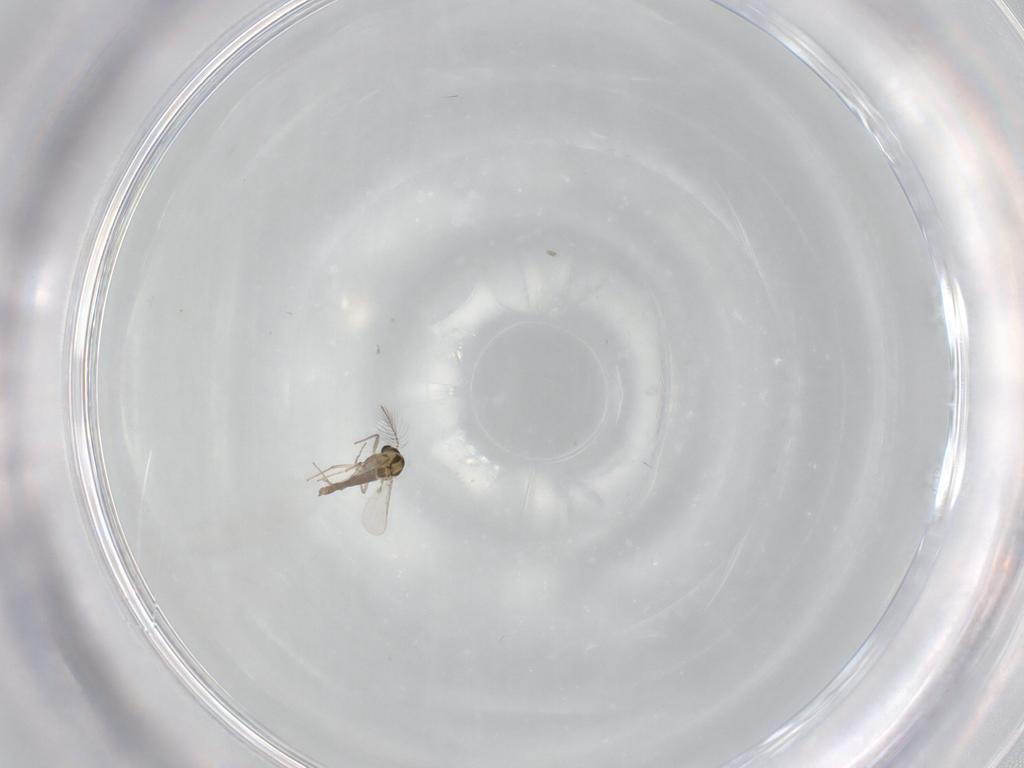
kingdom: Animalia
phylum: Arthropoda
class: Insecta
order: Diptera
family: Chironomidae
